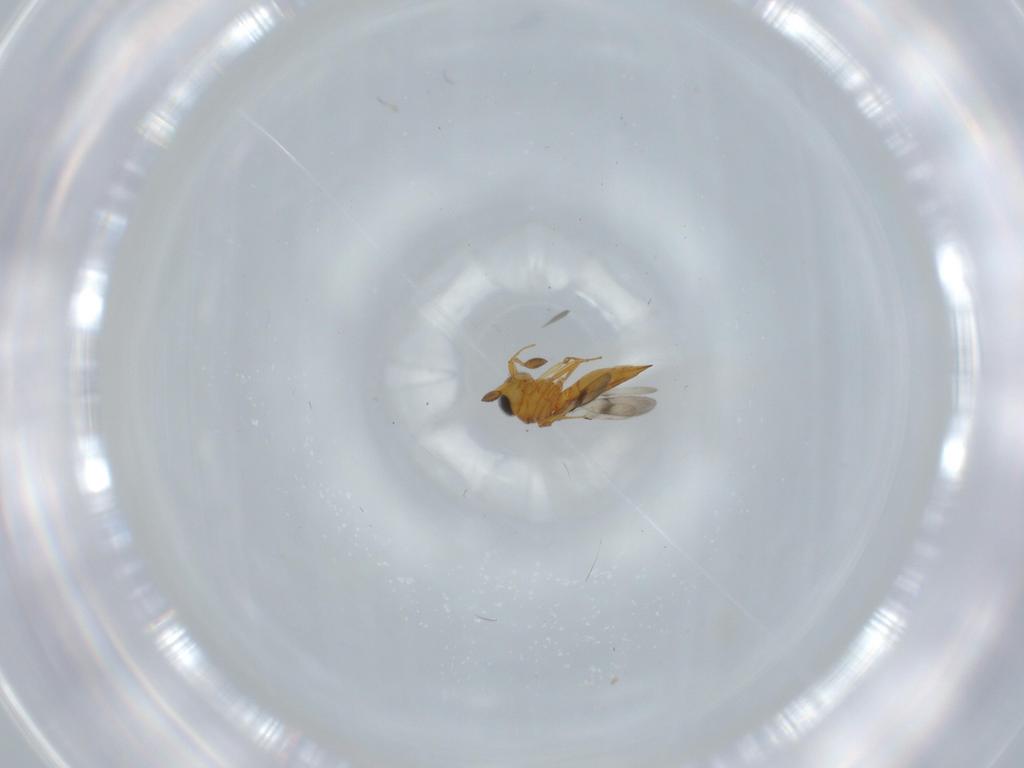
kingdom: Animalia
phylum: Arthropoda
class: Insecta
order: Hymenoptera
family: Scelionidae
